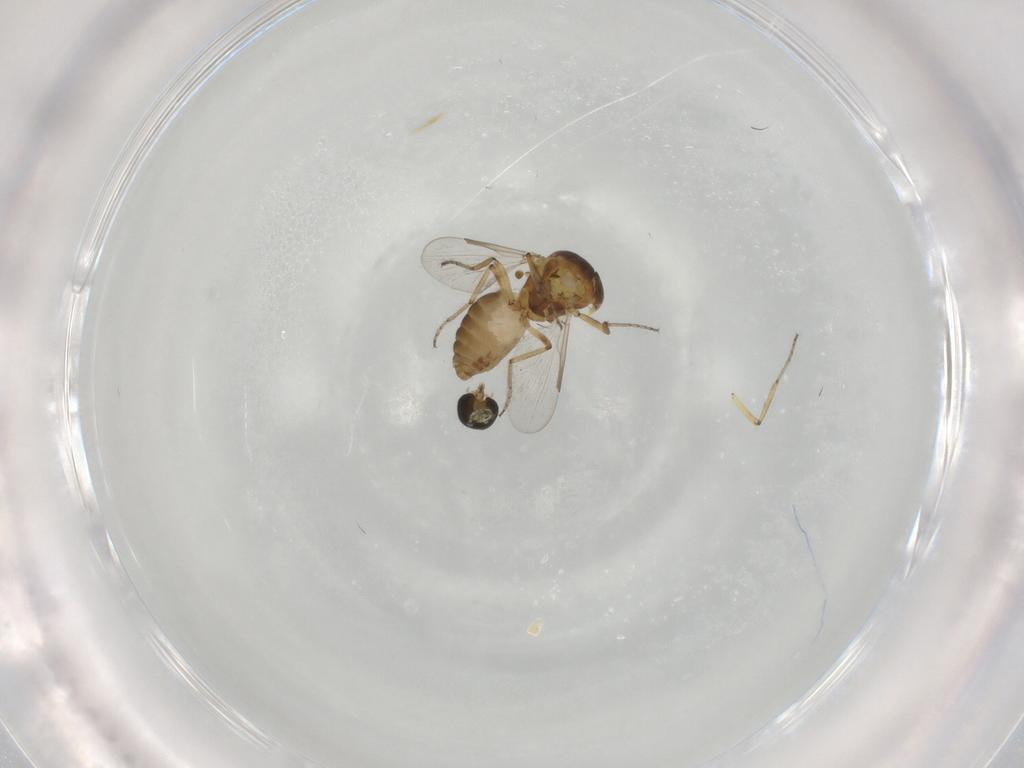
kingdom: Animalia
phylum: Arthropoda
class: Insecta
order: Diptera
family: Ceratopogonidae
